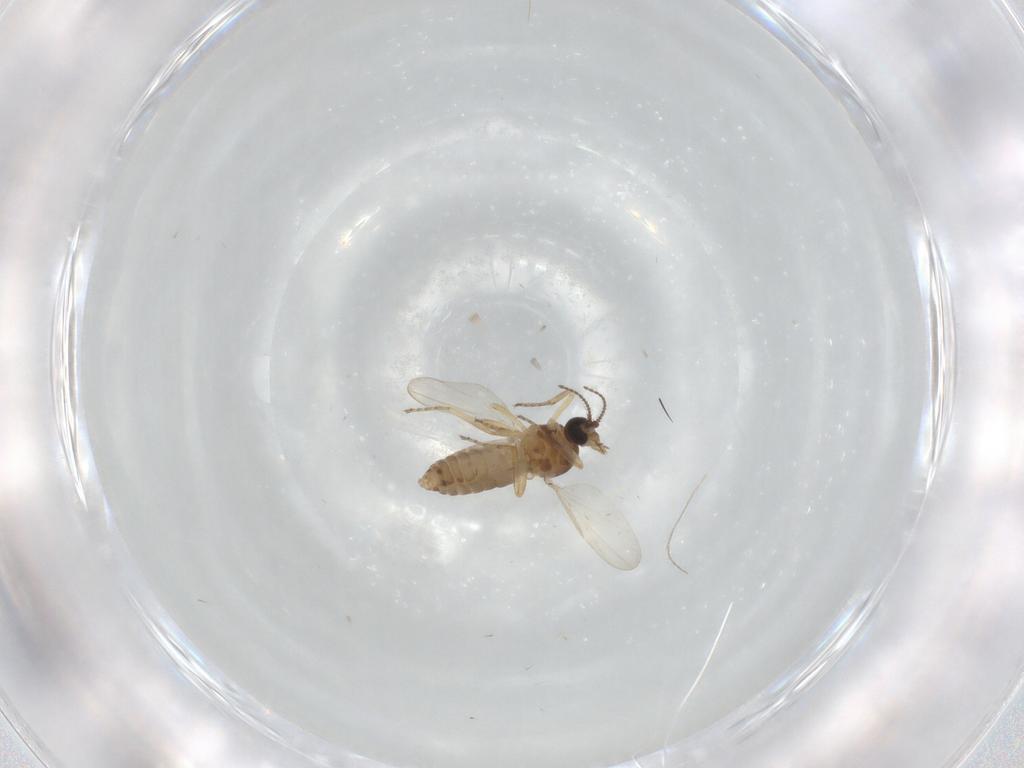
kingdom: Animalia
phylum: Arthropoda
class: Insecta
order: Diptera
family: Ceratopogonidae
